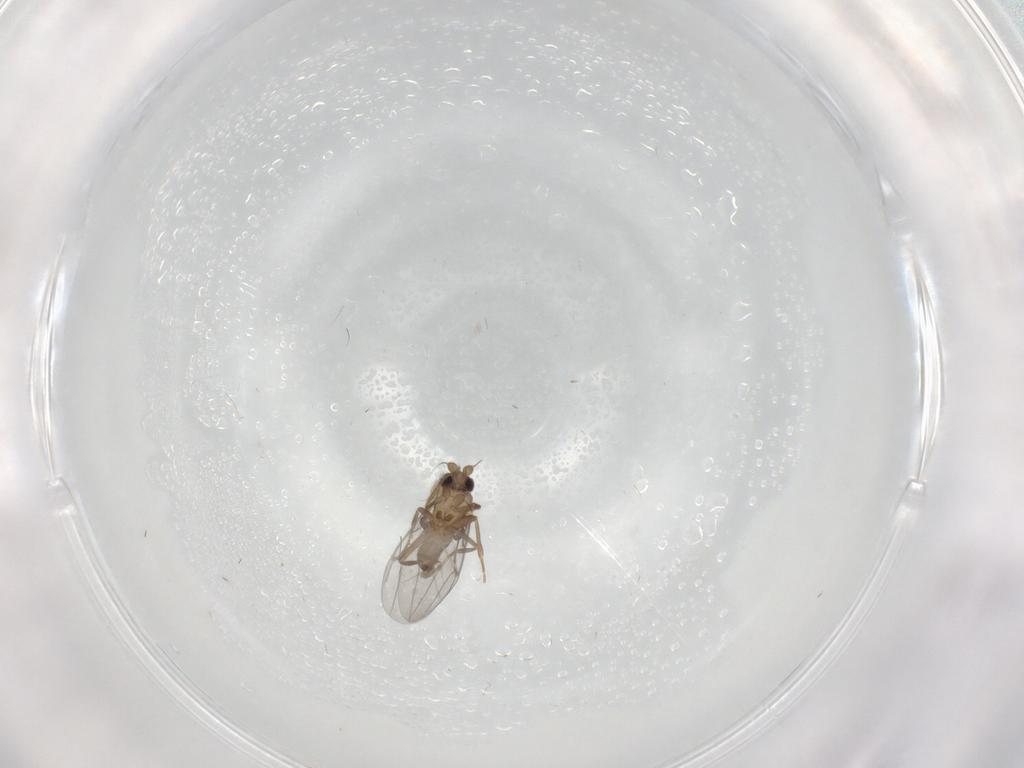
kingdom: Animalia
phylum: Arthropoda
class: Insecta
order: Diptera
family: Cecidomyiidae
